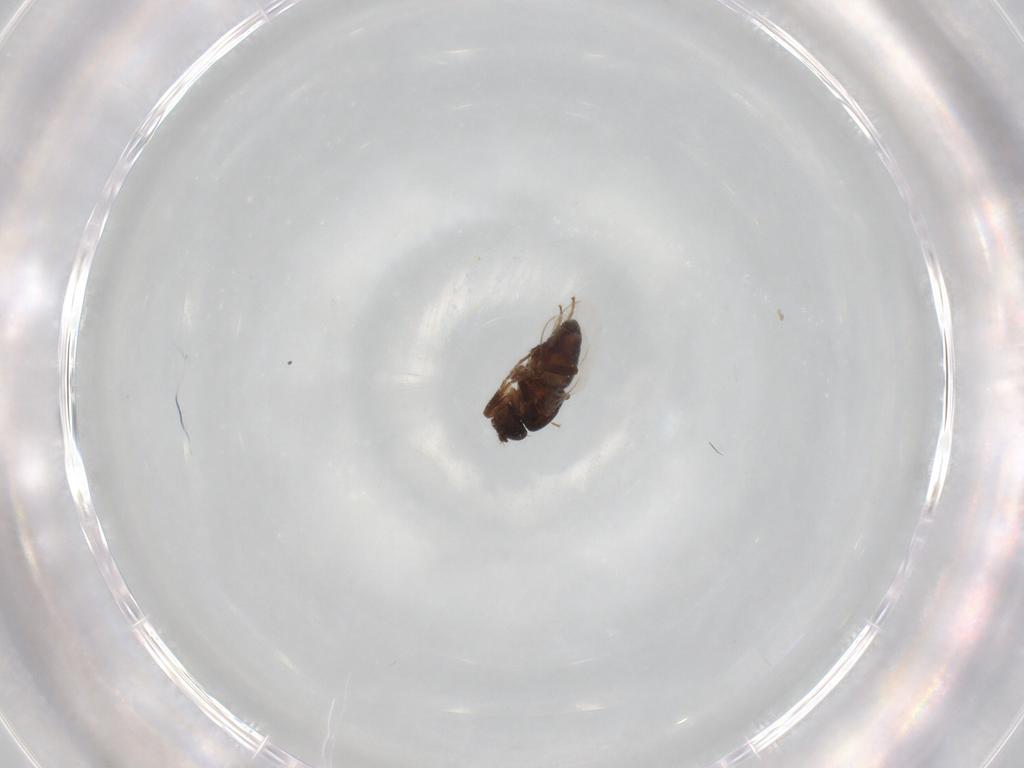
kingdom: Animalia
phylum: Arthropoda
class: Insecta
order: Diptera
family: Sphaeroceridae
